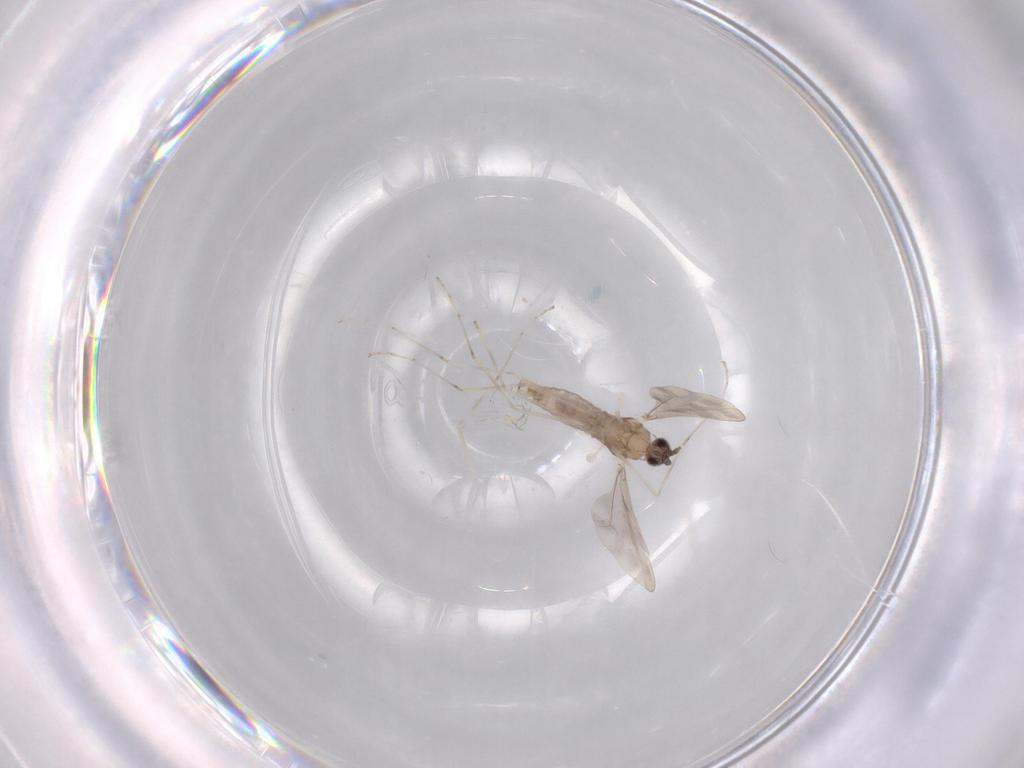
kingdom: Animalia
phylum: Arthropoda
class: Insecta
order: Diptera
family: Cecidomyiidae
